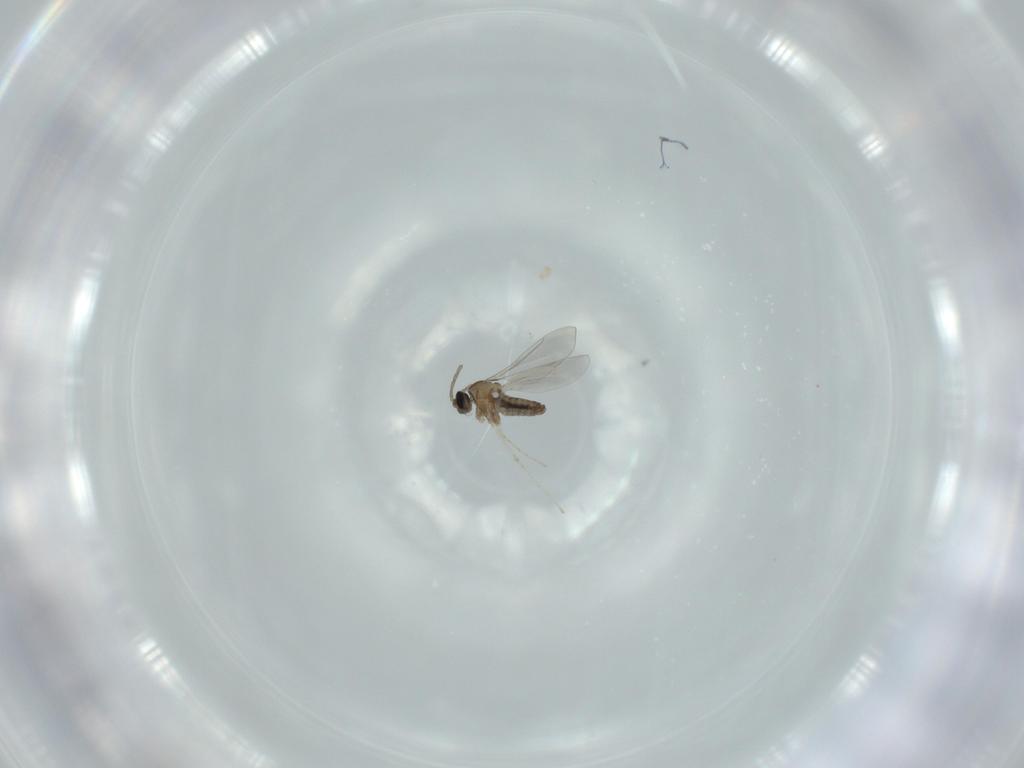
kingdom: Animalia
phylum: Arthropoda
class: Insecta
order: Diptera
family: Cecidomyiidae
